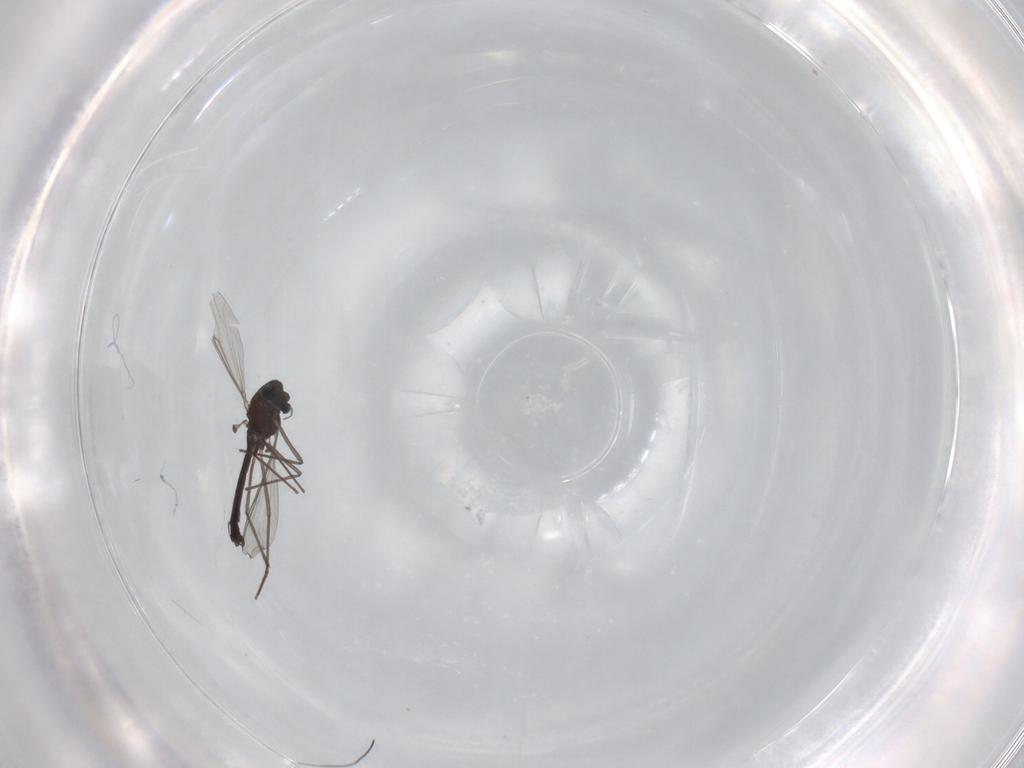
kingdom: Animalia
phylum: Arthropoda
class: Insecta
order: Diptera
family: Chironomidae
